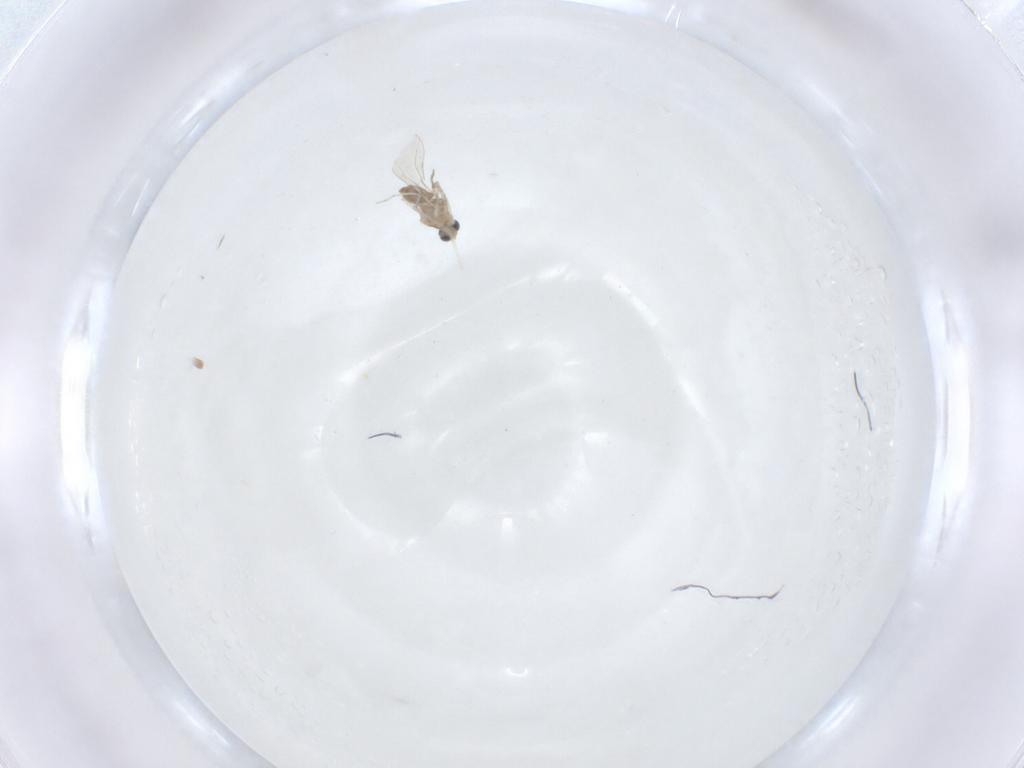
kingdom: Animalia
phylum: Arthropoda
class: Insecta
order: Diptera
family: Cecidomyiidae
